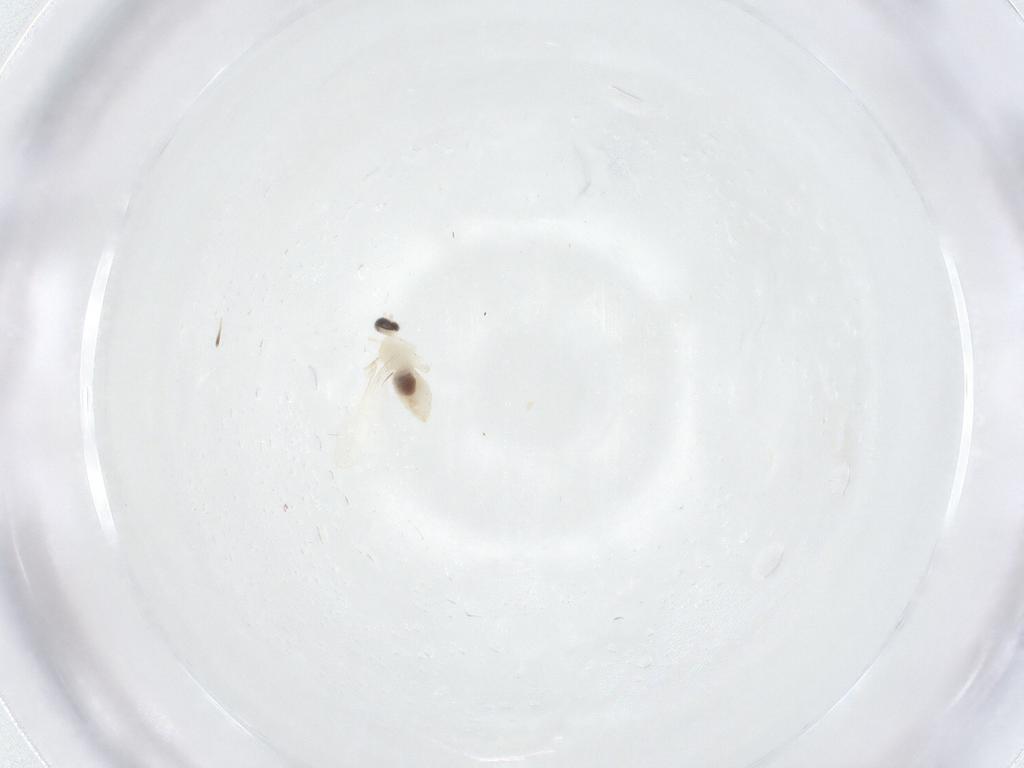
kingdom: Animalia
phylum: Arthropoda
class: Insecta
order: Diptera
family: Cecidomyiidae
